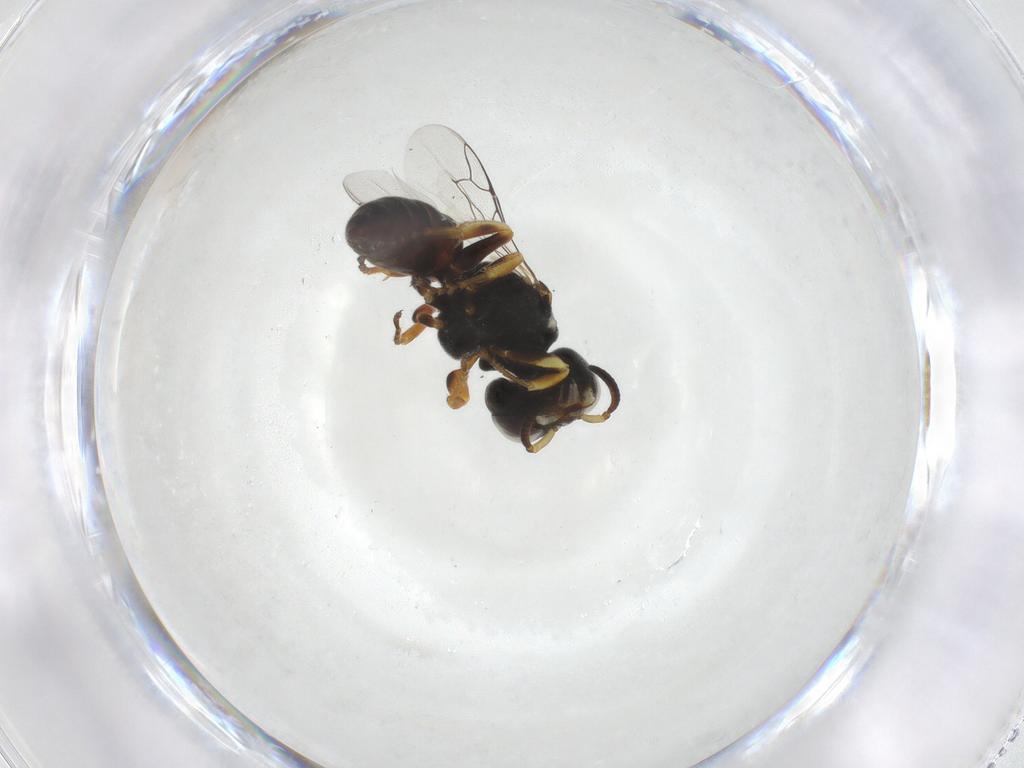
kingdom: Animalia
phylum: Arthropoda
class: Insecta
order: Hymenoptera
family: Crabronidae
